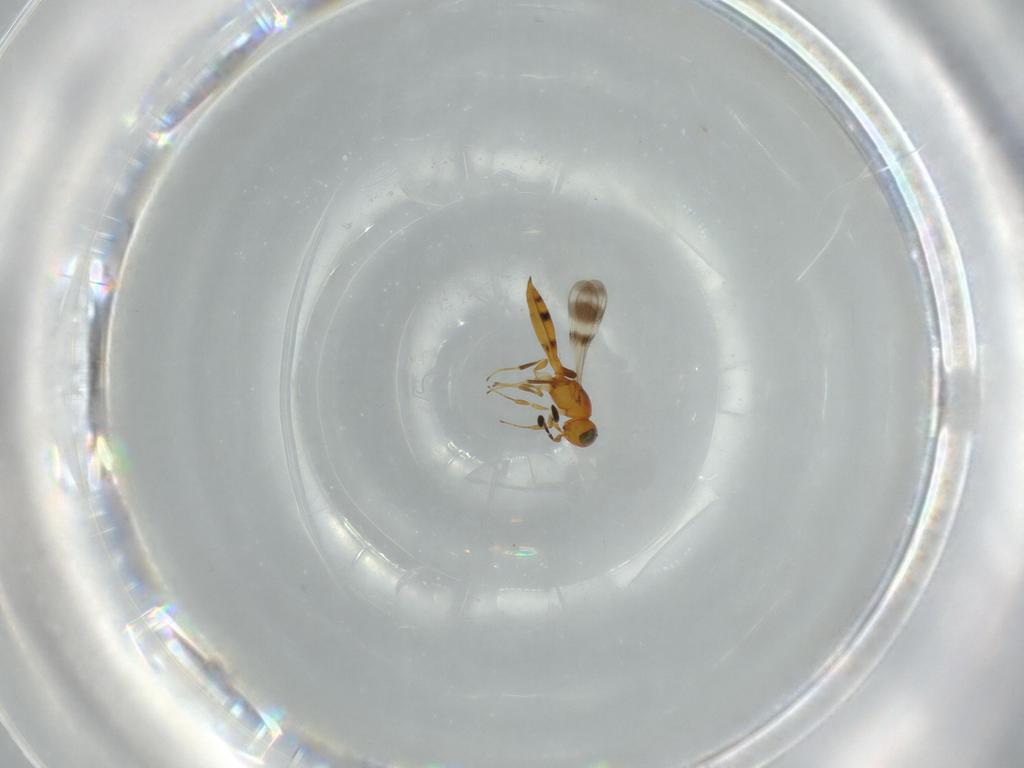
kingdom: Animalia
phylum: Arthropoda
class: Insecta
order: Hymenoptera
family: Scelionidae
